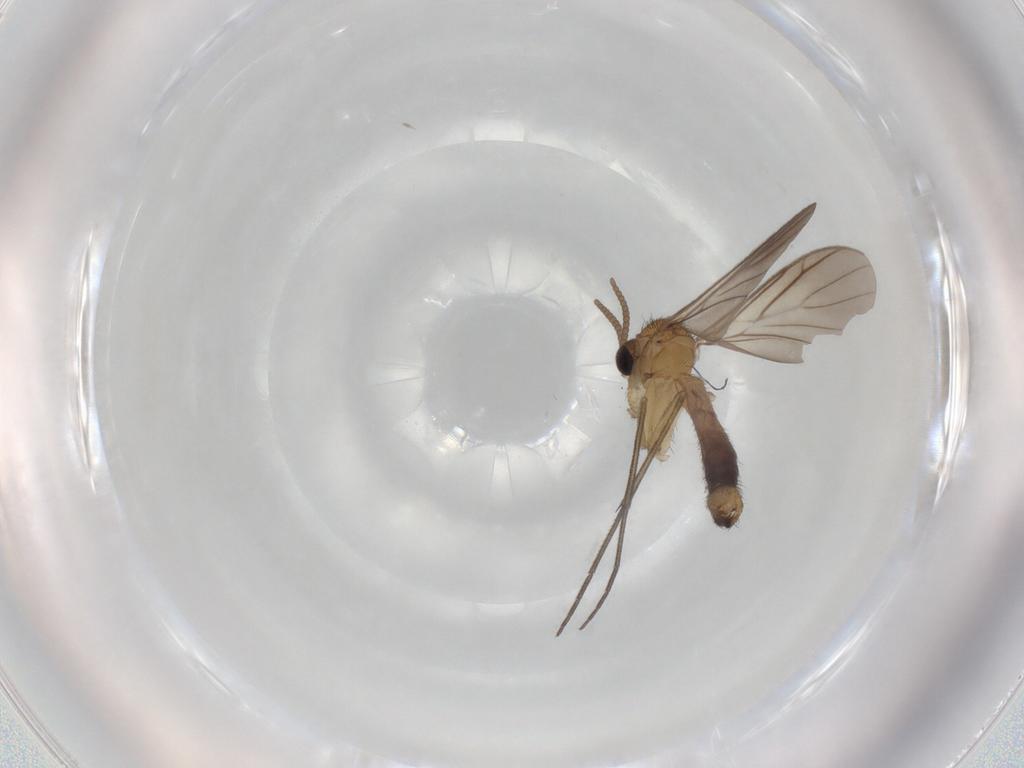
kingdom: Animalia
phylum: Arthropoda
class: Insecta
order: Diptera
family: Keroplatidae
